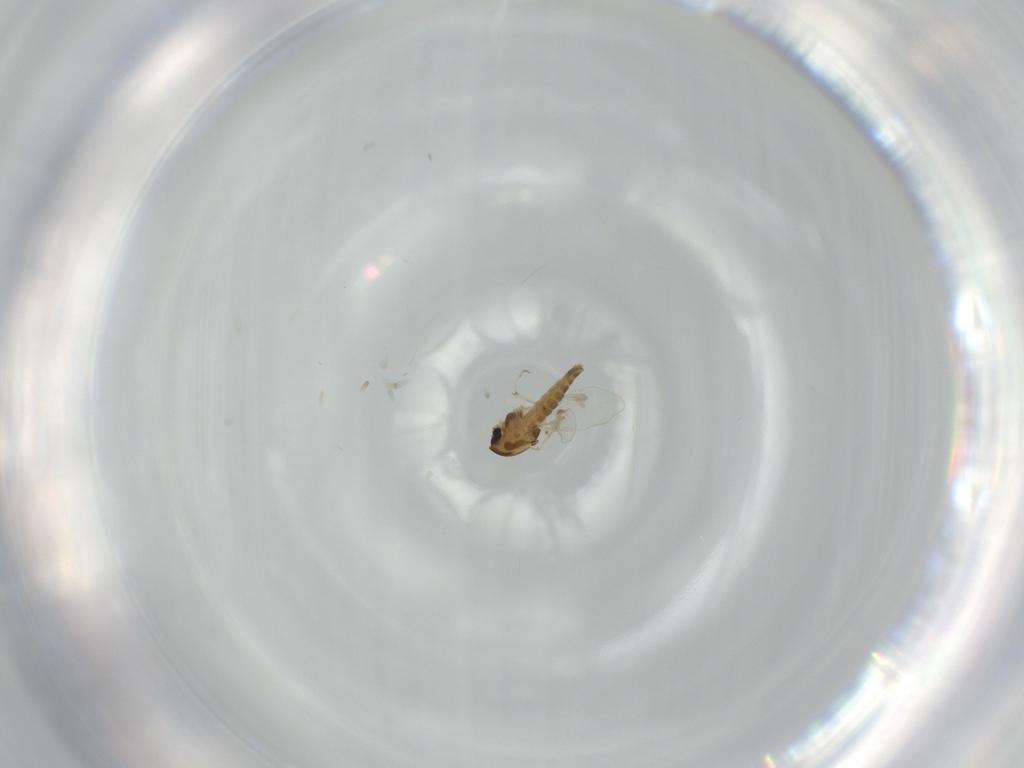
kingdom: Animalia
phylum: Arthropoda
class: Insecta
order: Diptera
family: Chironomidae
